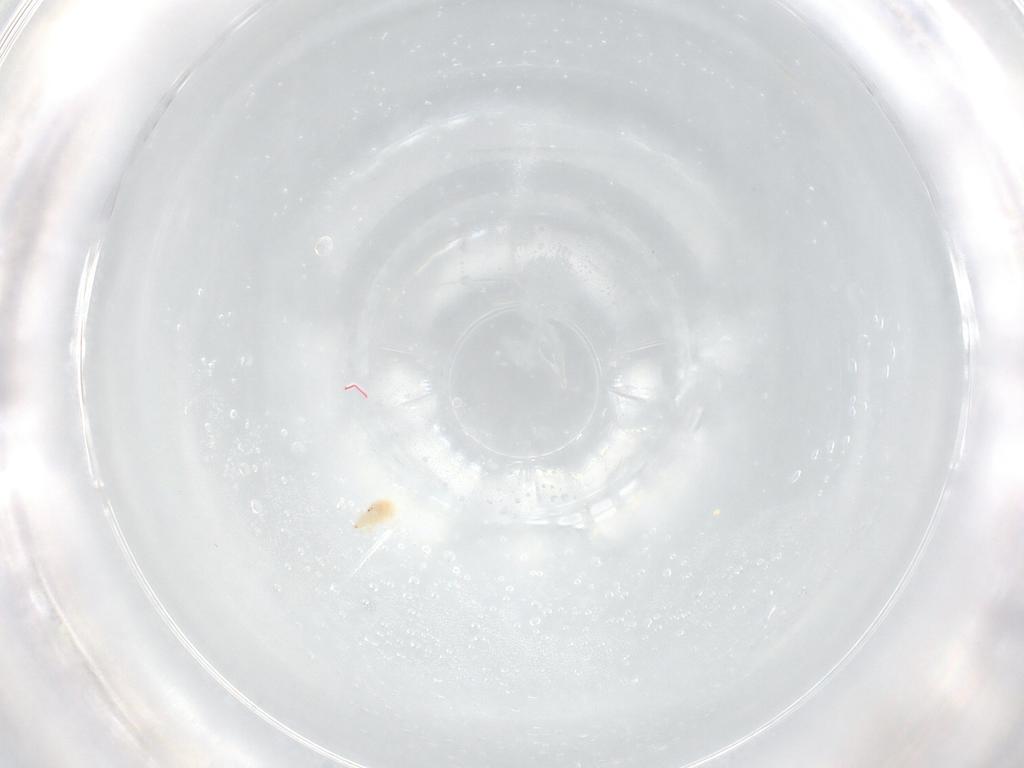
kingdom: Animalia
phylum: Arthropoda
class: Arachnida
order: Trombidiformes
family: Bdellidae
